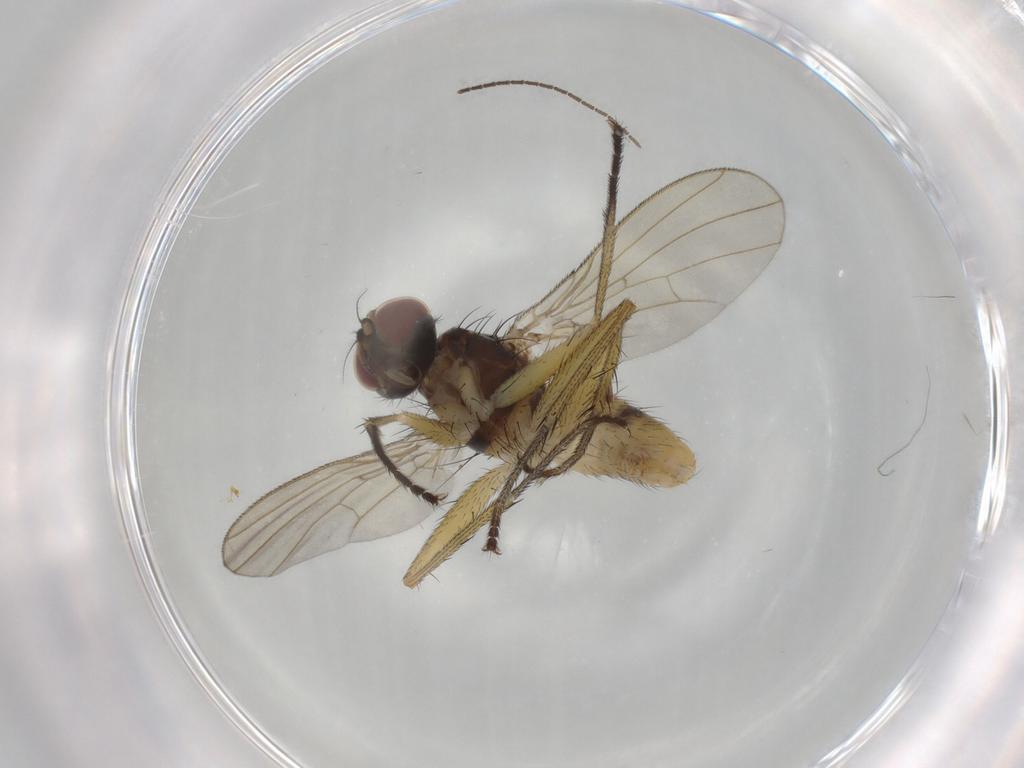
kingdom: Animalia
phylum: Arthropoda
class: Insecta
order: Diptera
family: Muscidae
